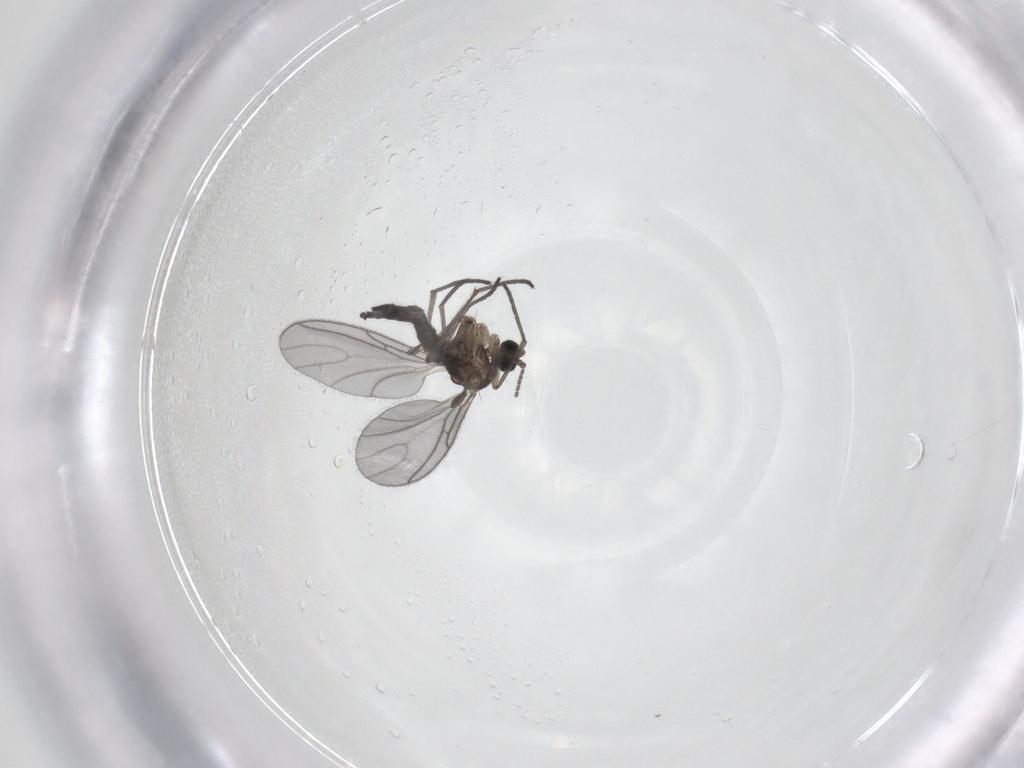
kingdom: Animalia
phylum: Arthropoda
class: Insecta
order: Diptera
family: Sciaridae
